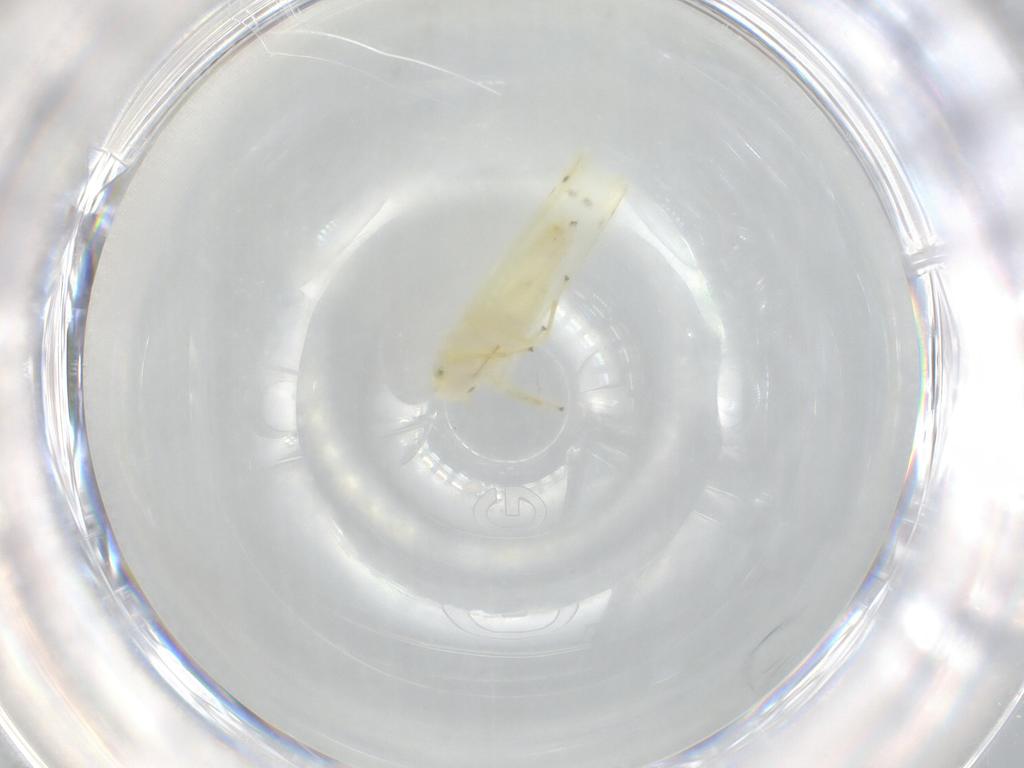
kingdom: Animalia
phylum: Arthropoda
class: Insecta
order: Hemiptera
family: Cicadellidae
